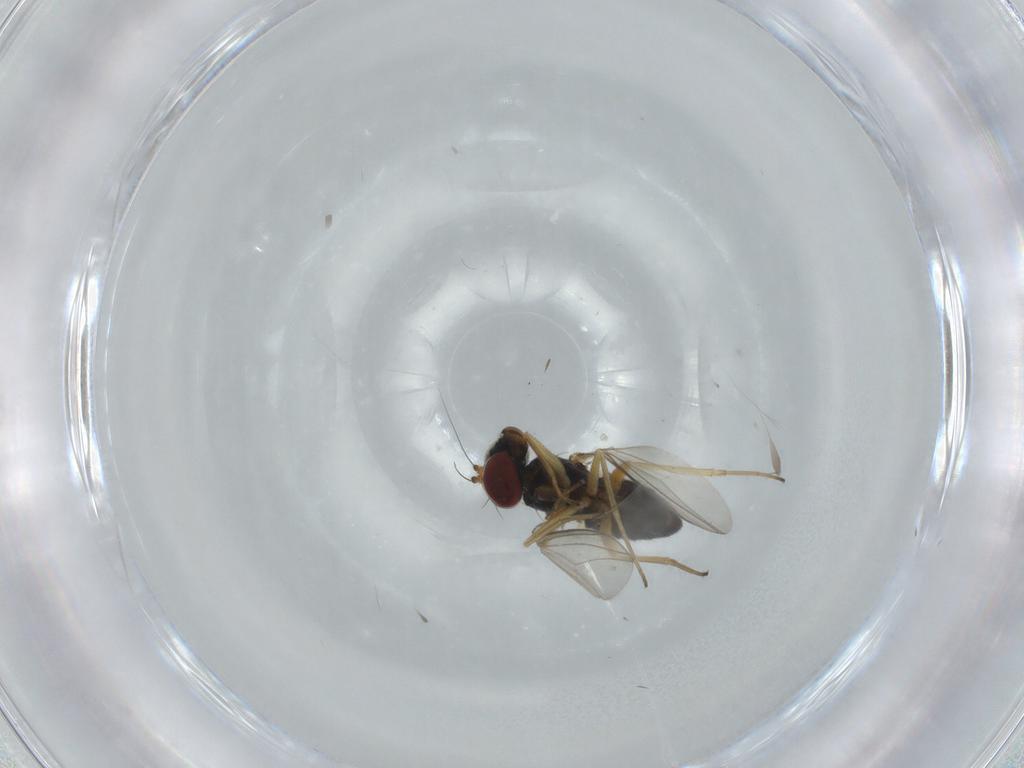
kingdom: Animalia
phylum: Arthropoda
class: Insecta
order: Diptera
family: Dolichopodidae
